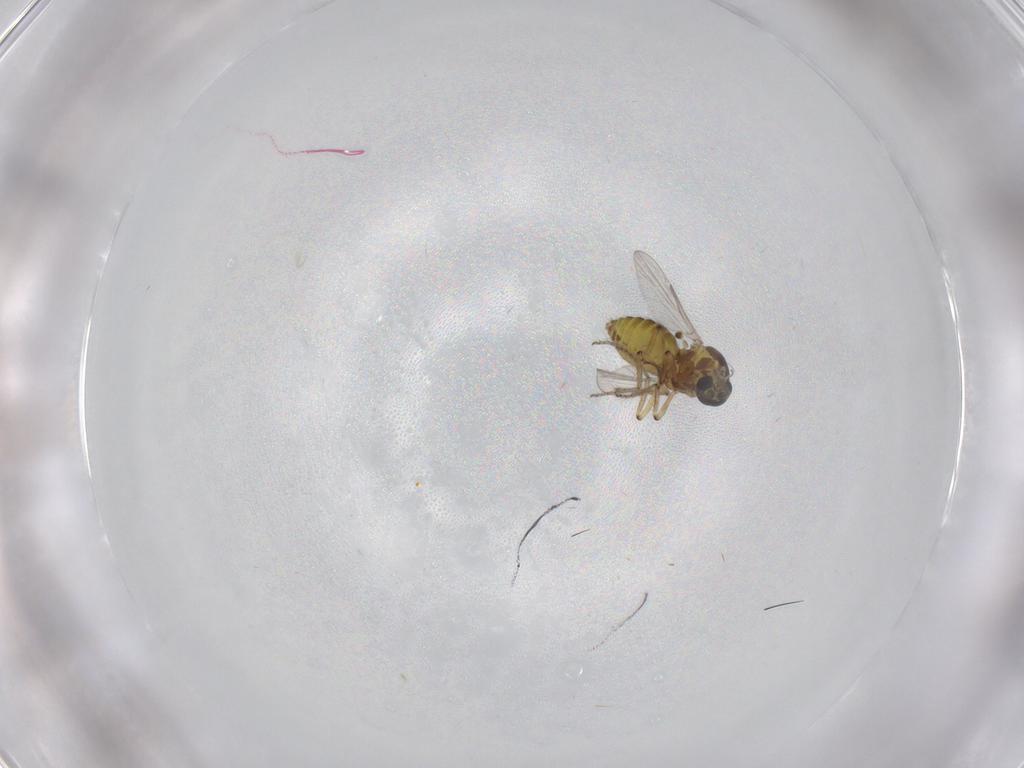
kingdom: Animalia
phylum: Arthropoda
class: Insecta
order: Diptera
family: Ceratopogonidae
